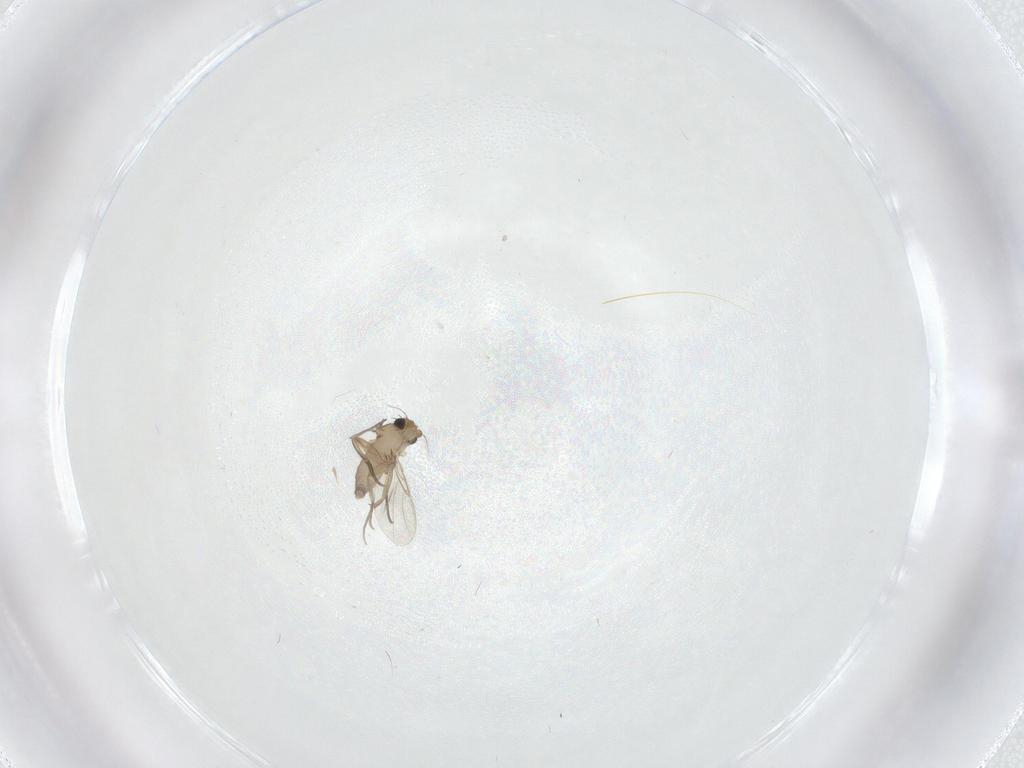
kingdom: Animalia
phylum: Arthropoda
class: Insecta
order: Diptera
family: Phoridae
